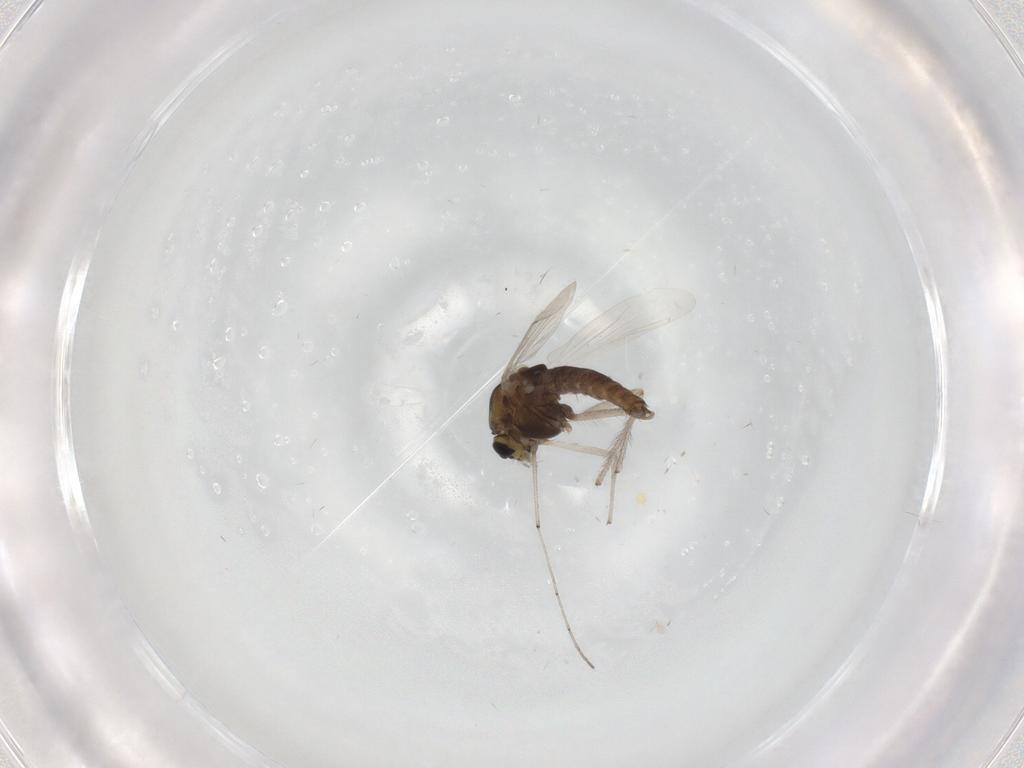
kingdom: Animalia
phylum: Arthropoda
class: Insecta
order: Diptera
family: Chironomidae
